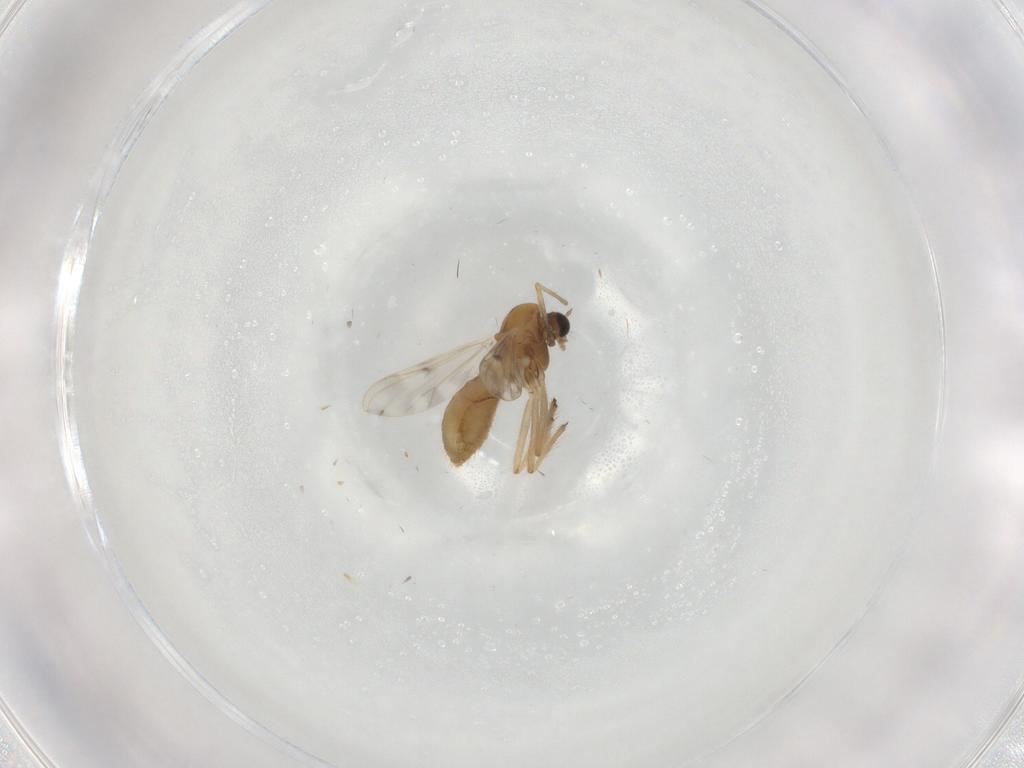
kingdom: Animalia
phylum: Arthropoda
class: Insecta
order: Diptera
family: Chironomidae
